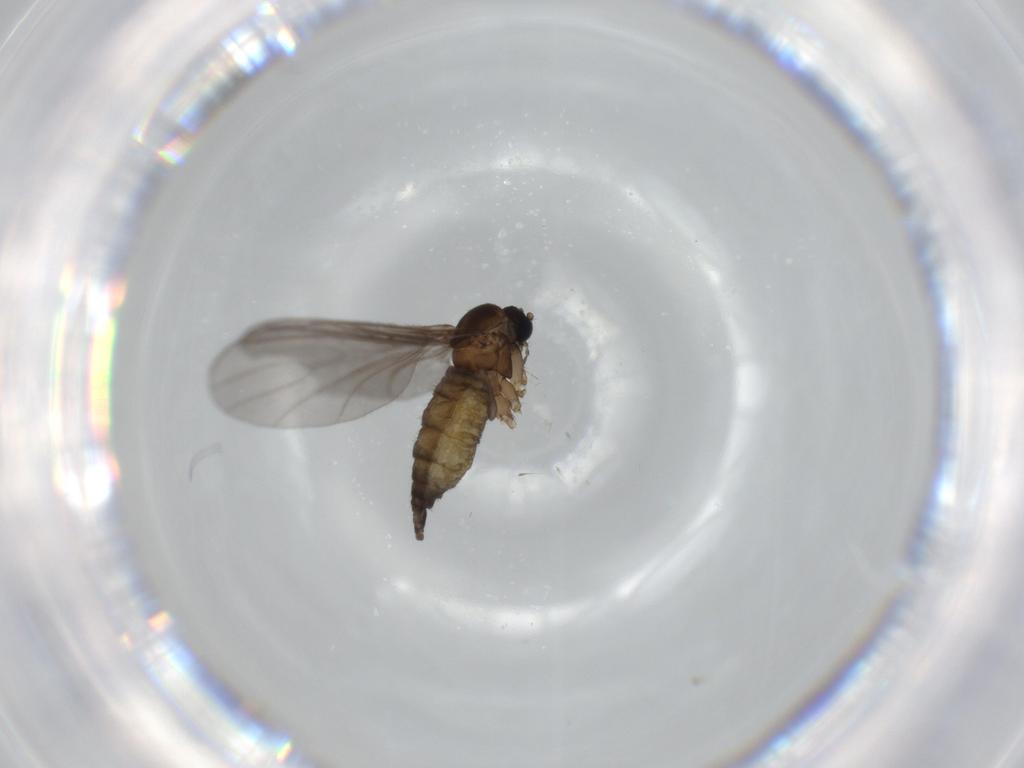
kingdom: Animalia
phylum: Arthropoda
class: Insecta
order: Diptera
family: Sciaridae
